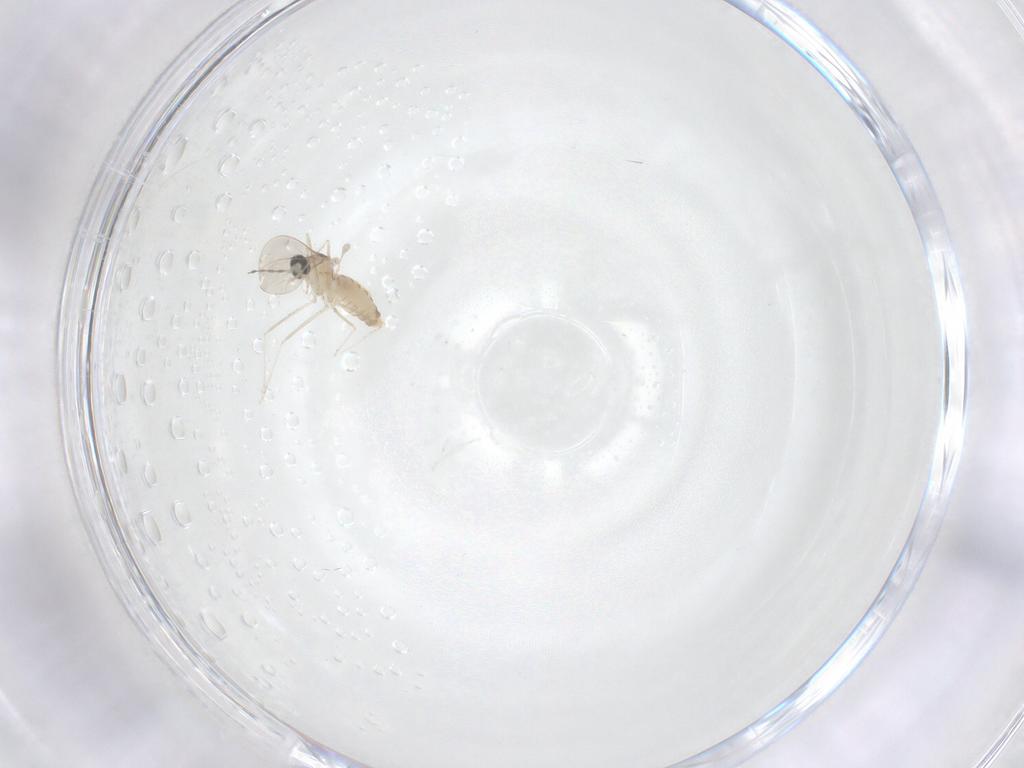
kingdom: Animalia
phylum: Arthropoda
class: Insecta
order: Diptera
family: Cecidomyiidae
